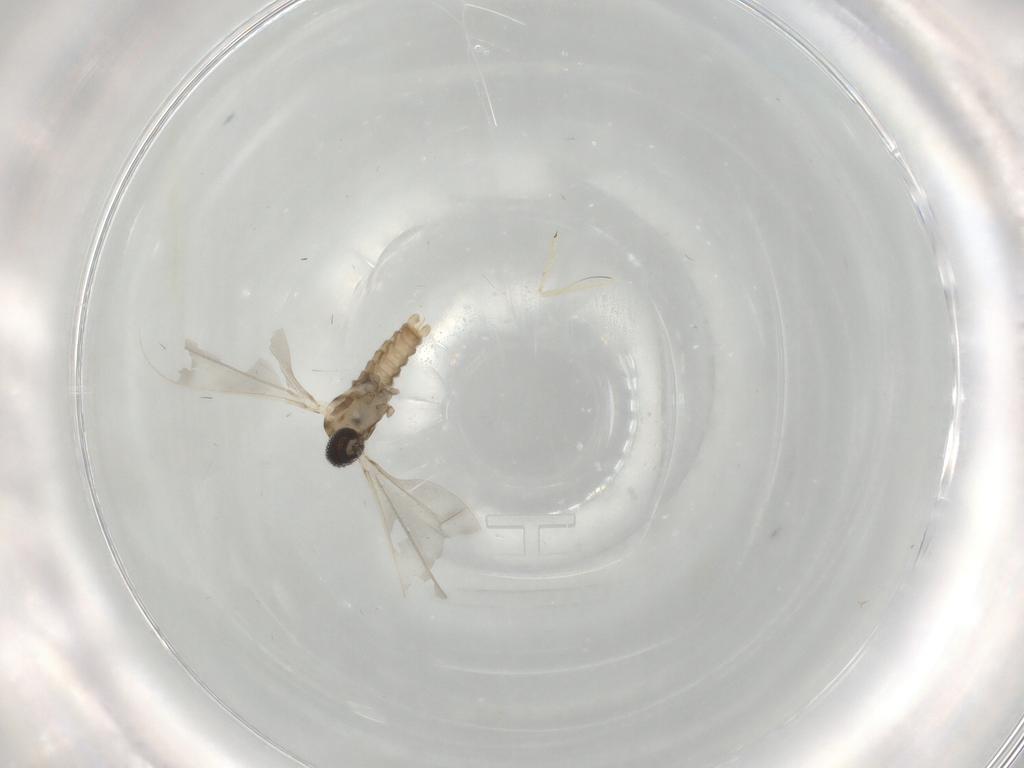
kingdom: Animalia
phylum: Arthropoda
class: Insecta
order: Diptera
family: Cecidomyiidae
